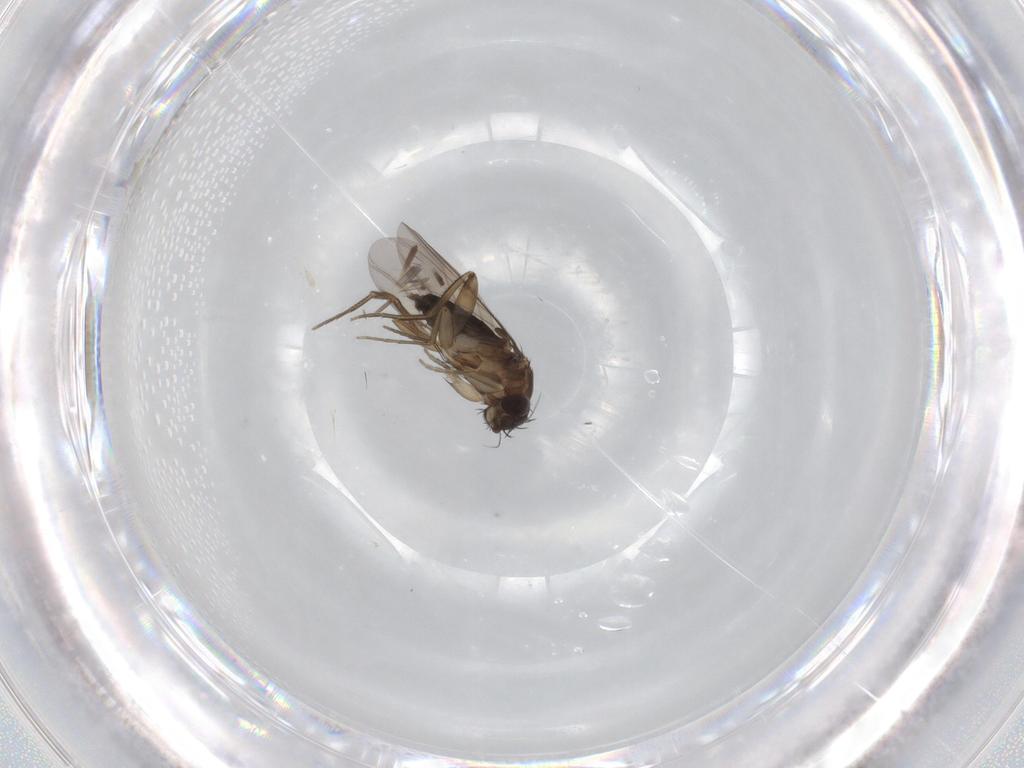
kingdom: Animalia
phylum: Arthropoda
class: Insecta
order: Diptera
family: Phoridae
